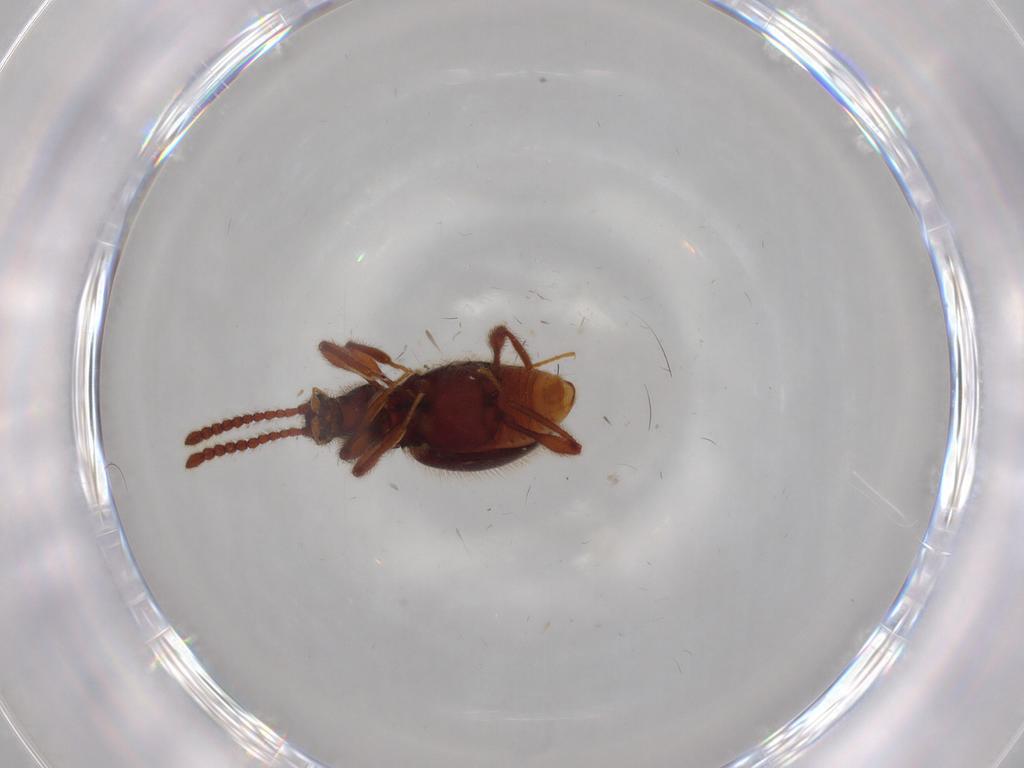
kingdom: Animalia
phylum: Arthropoda
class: Insecta
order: Coleoptera
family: Staphylinidae
